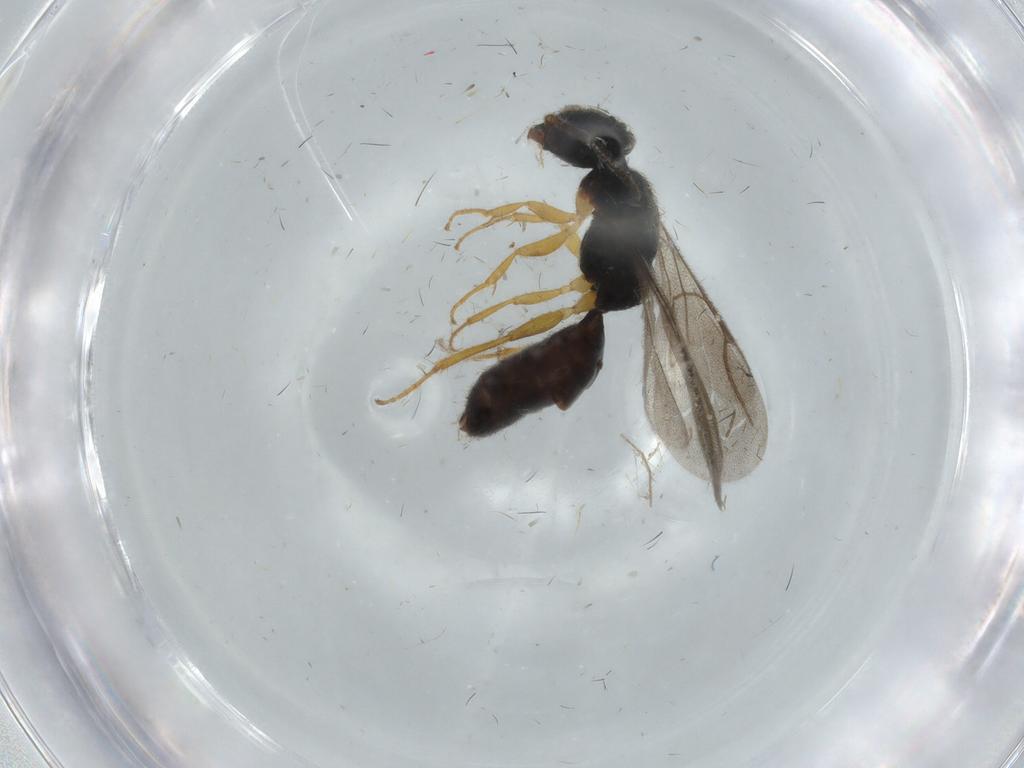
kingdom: Animalia
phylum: Arthropoda
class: Insecta
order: Hymenoptera
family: Bethylidae
